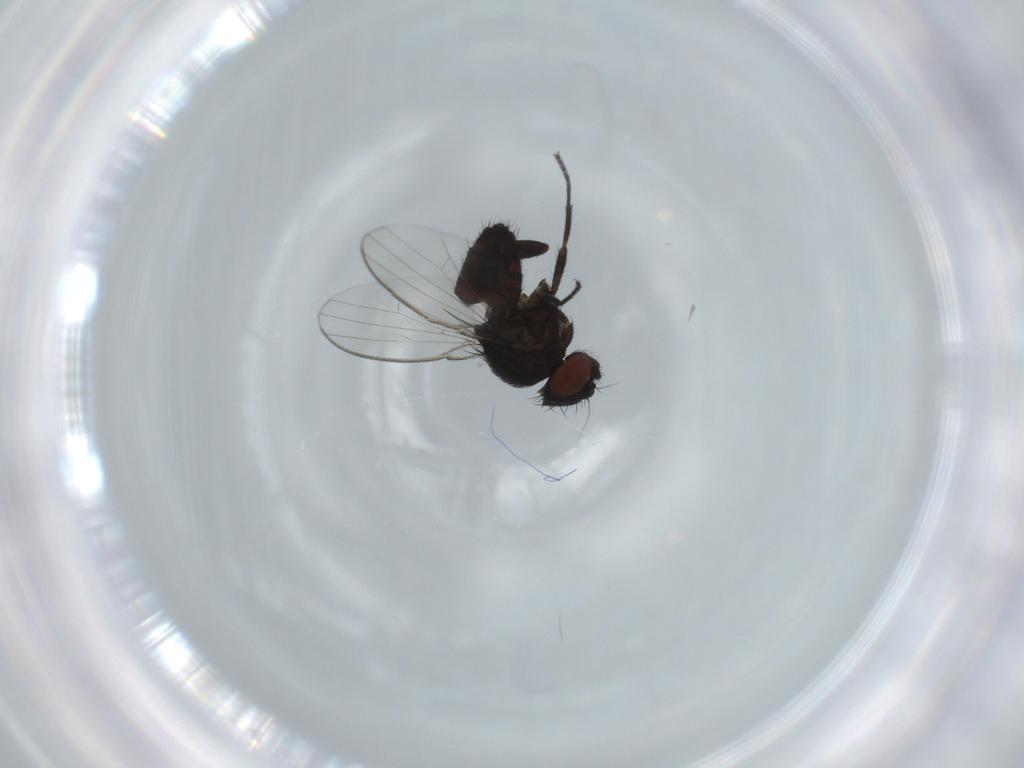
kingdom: Animalia
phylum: Arthropoda
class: Insecta
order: Diptera
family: Milichiidae
